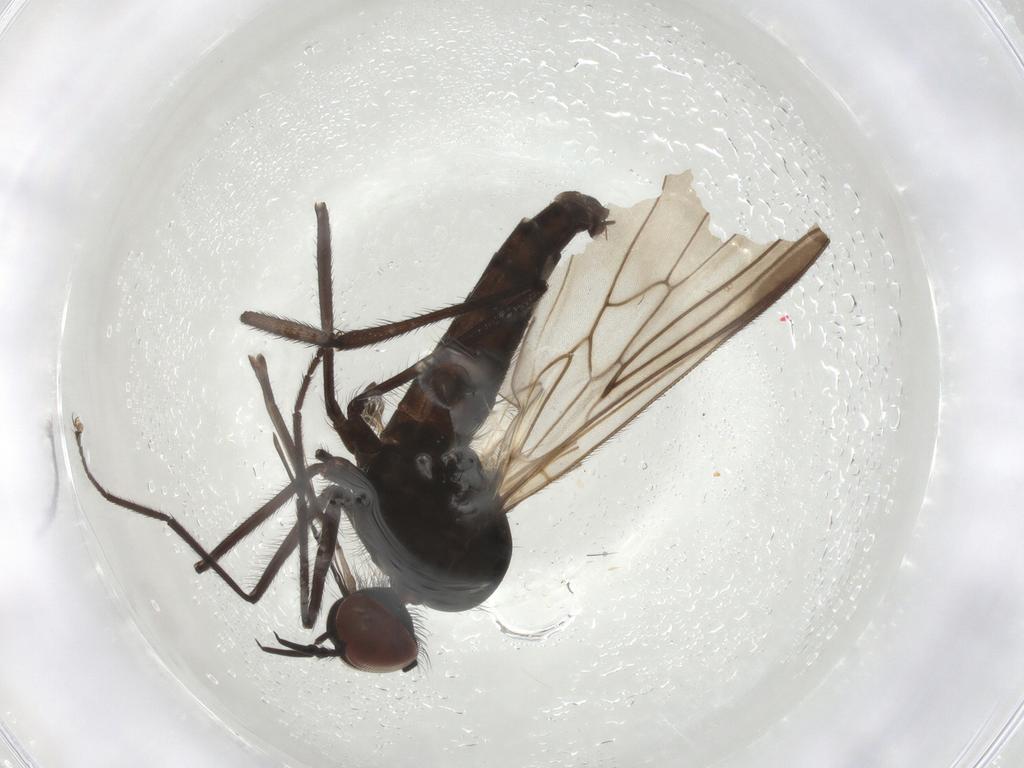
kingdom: Animalia
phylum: Arthropoda
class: Insecta
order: Diptera
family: Empididae
